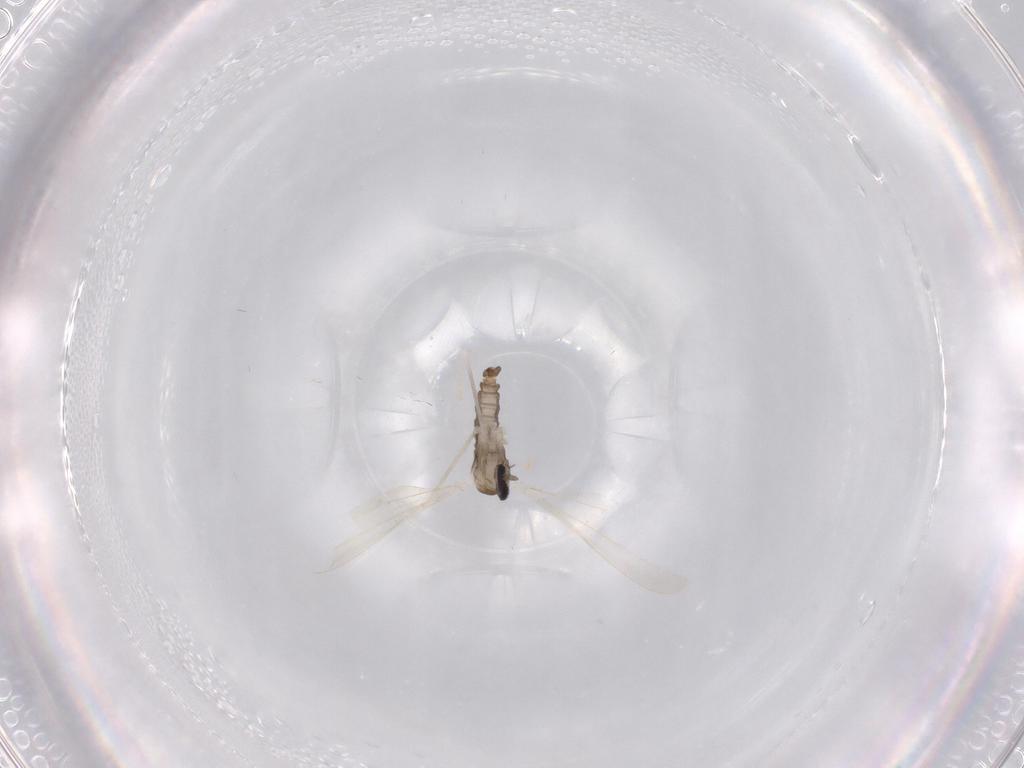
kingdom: Animalia
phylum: Arthropoda
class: Insecta
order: Diptera
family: Cecidomyiidae
